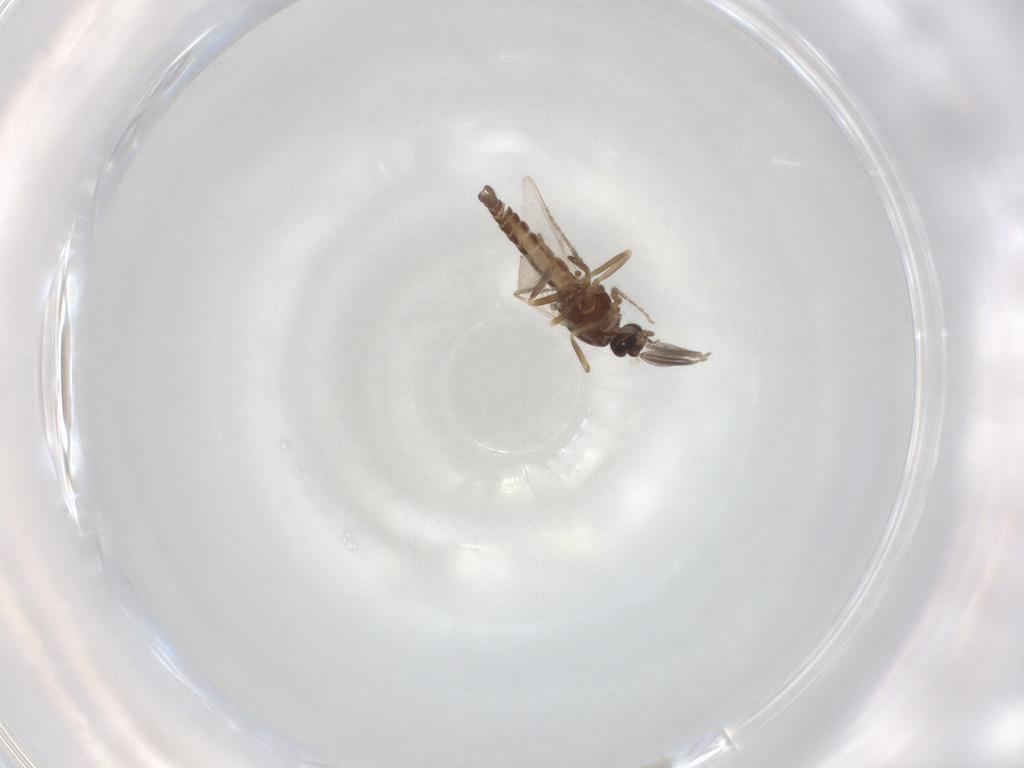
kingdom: Animalia
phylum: Arthropoda
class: Insecta
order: Diptera
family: Ceratopogonidae
